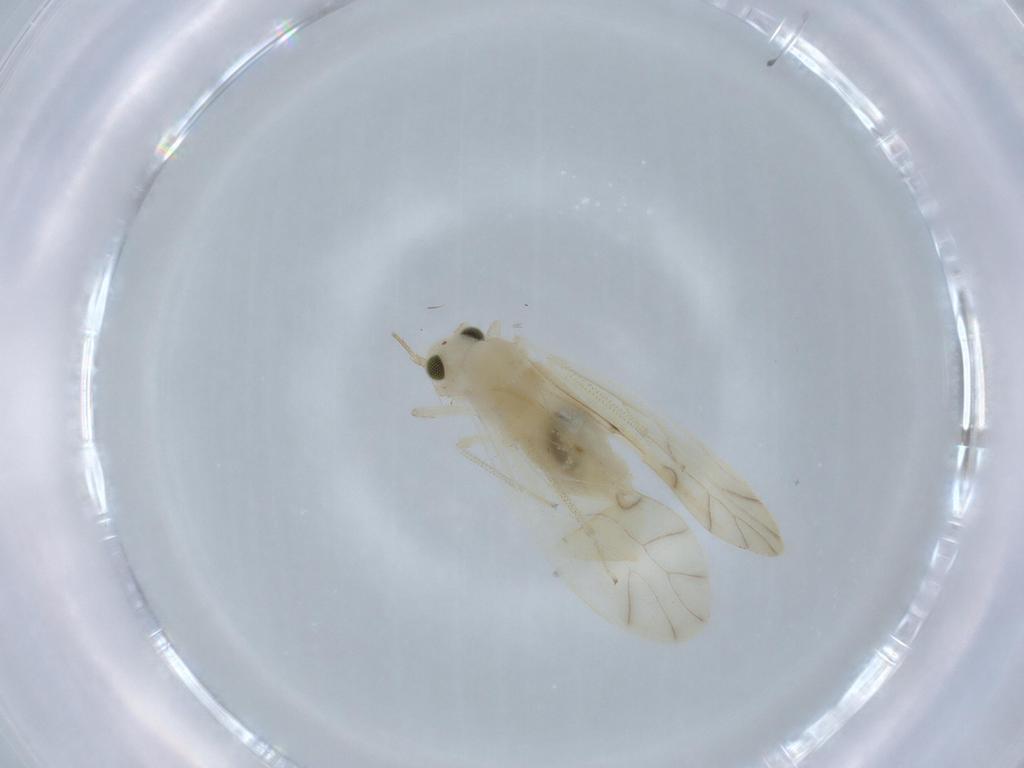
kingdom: Animalia
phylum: Arthropoda
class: Insecta
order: Psocodea
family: Caeciliusidae
